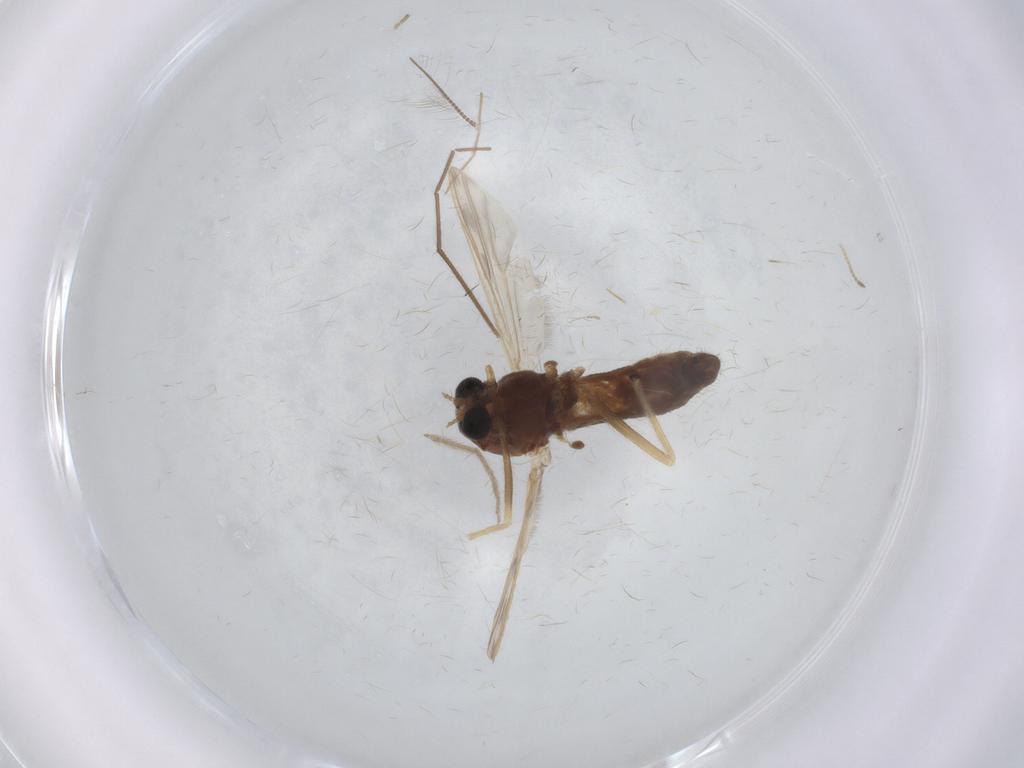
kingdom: Animalia
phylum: Arthropoda
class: Insecta
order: Diptera
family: Chironomidae
